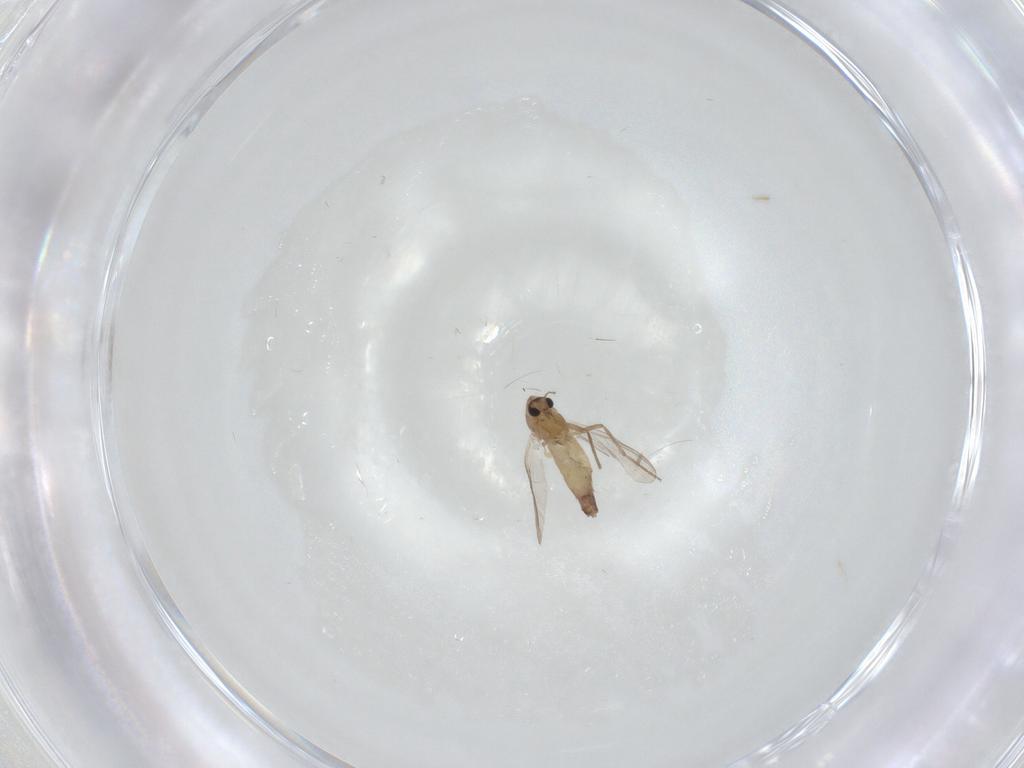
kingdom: Animalia
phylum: Arthropoda
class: Insecta
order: Diptera
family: Chironomidae
